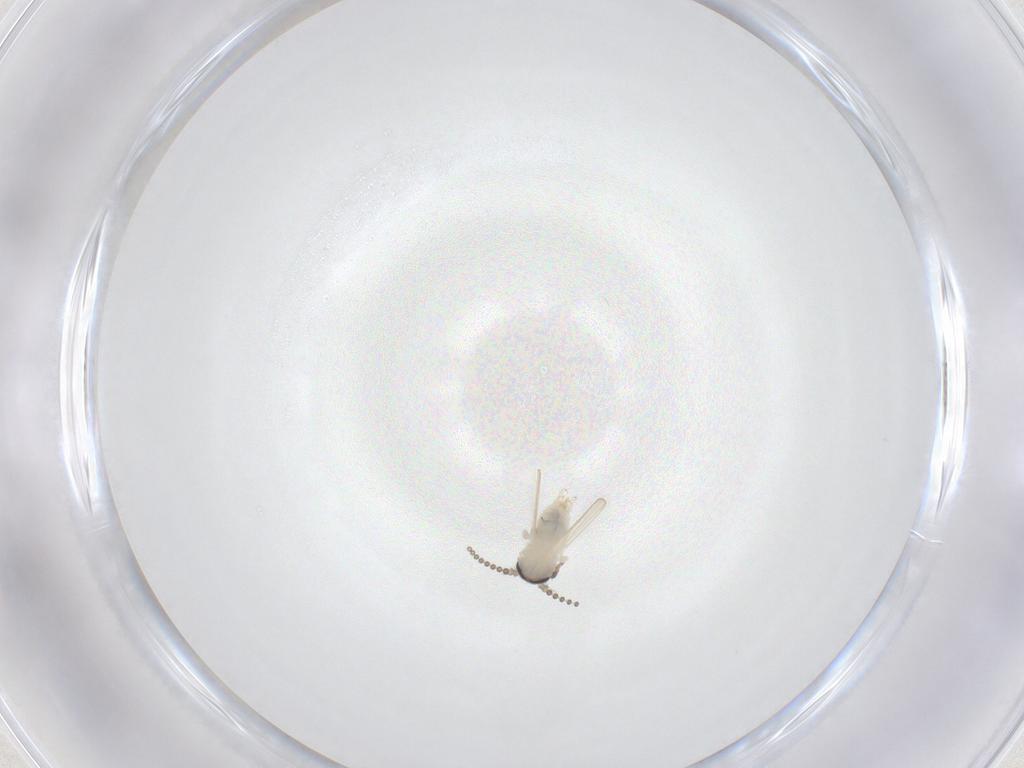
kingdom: Animalia
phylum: Arthropoda
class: Insecta
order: Diptera
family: Psychodidae
